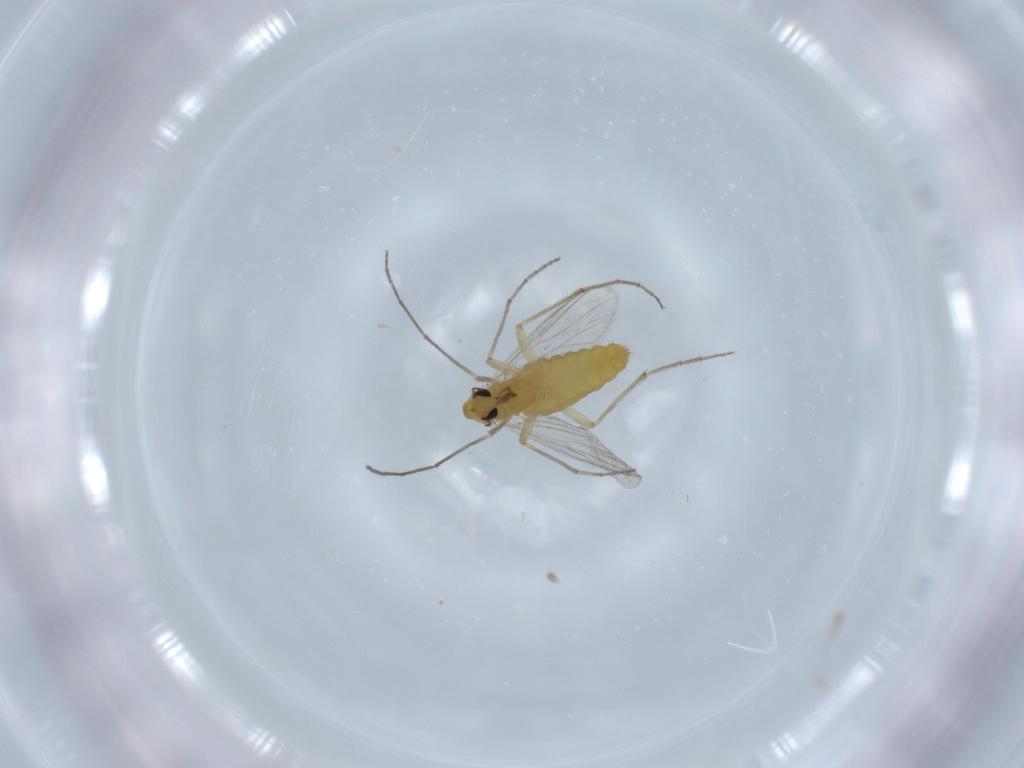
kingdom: Animalia
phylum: Arthropoda
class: Insecta
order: Diptera
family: Chironomidae
